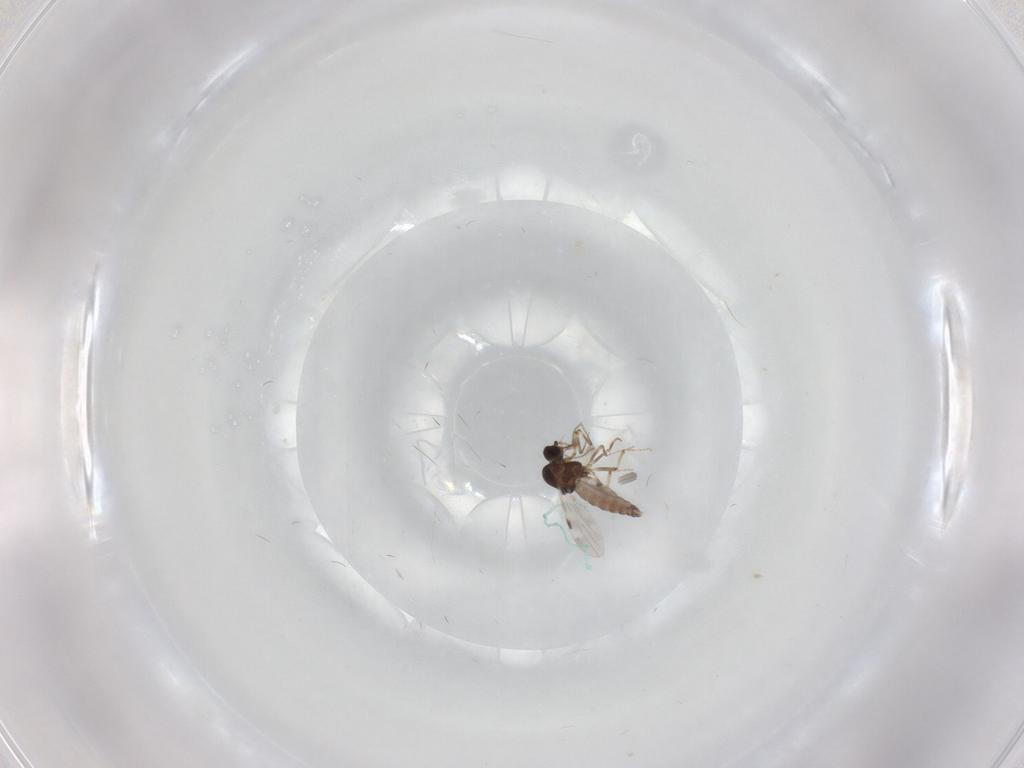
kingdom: Animalia
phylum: Arthropoda
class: Insecta
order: Diptera
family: Cecidomyiidae
